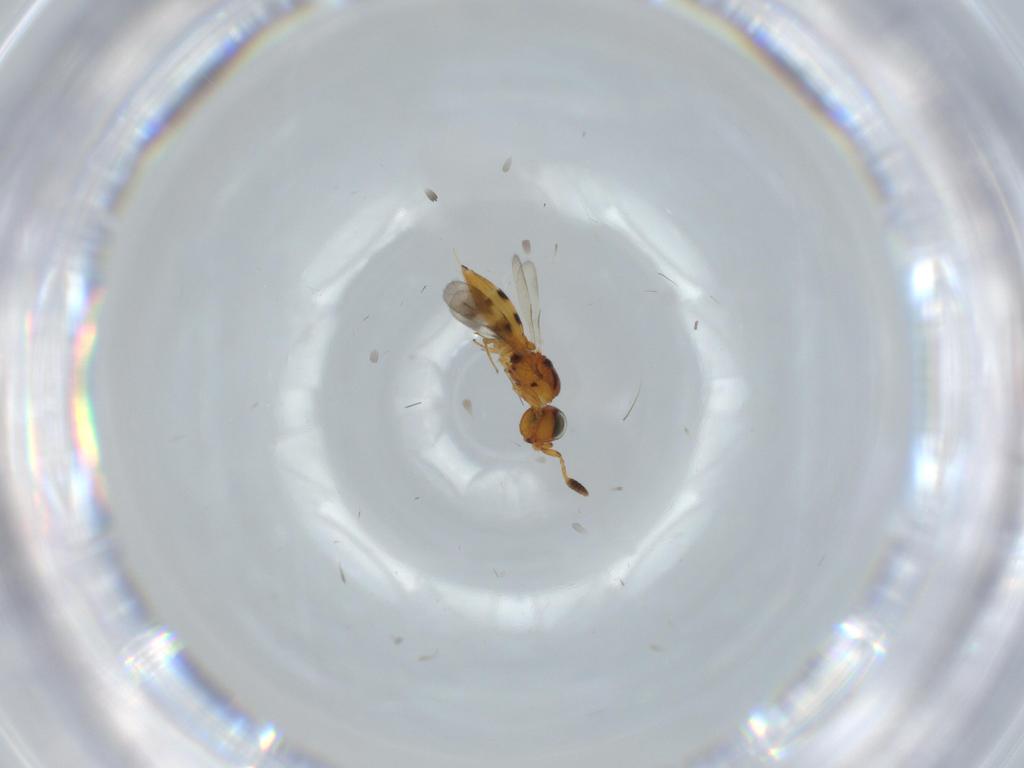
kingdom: Animalia
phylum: Arthropoda
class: Insecta
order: Hymenoptera
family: Scelionidae
